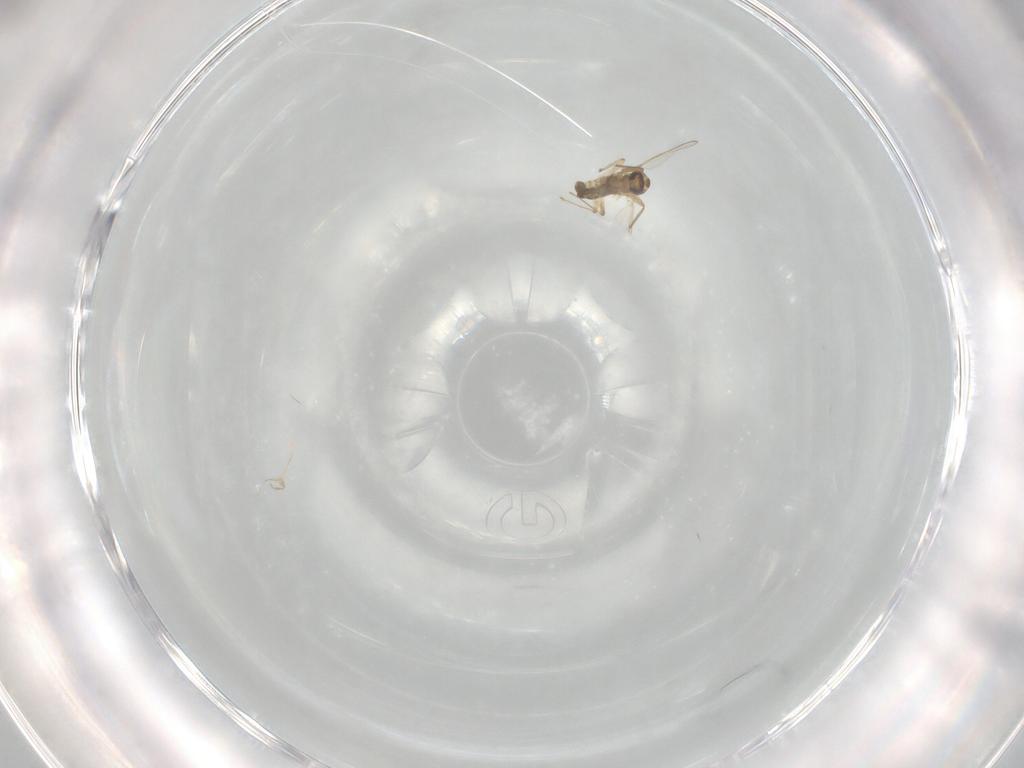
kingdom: Animalia
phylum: Arthropoda
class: Insecta
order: Diptera
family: Chironomidae
